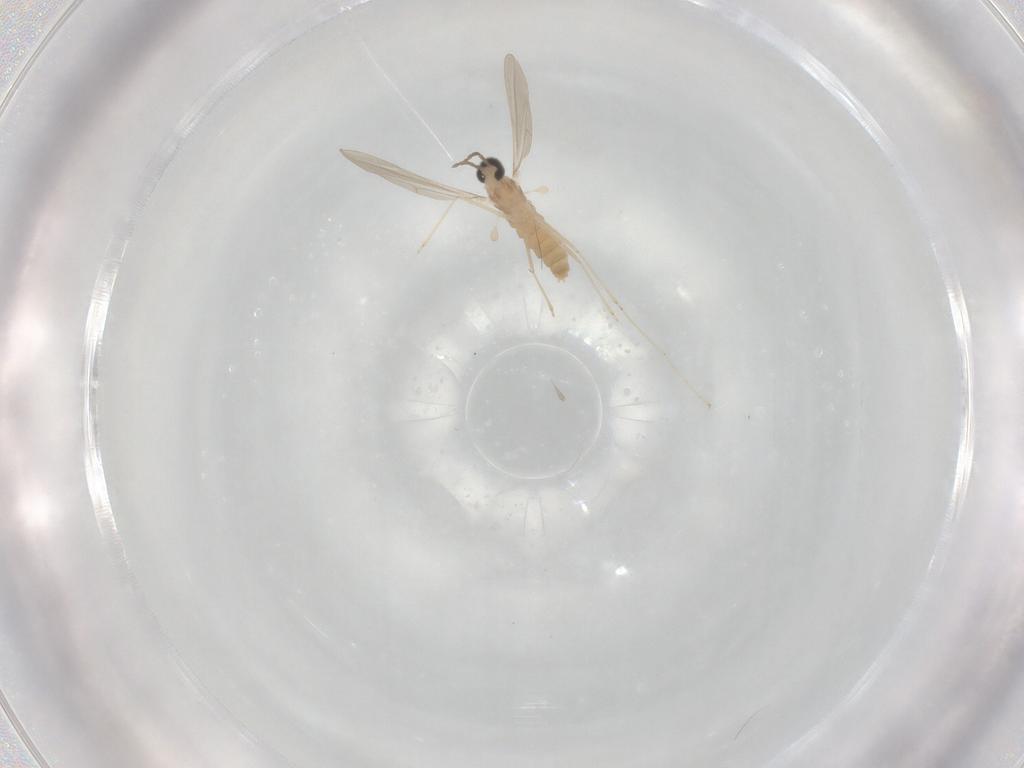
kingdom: Animalia
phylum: Arthropoda
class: Insecta
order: Diptera
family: Cecidomyiidae
